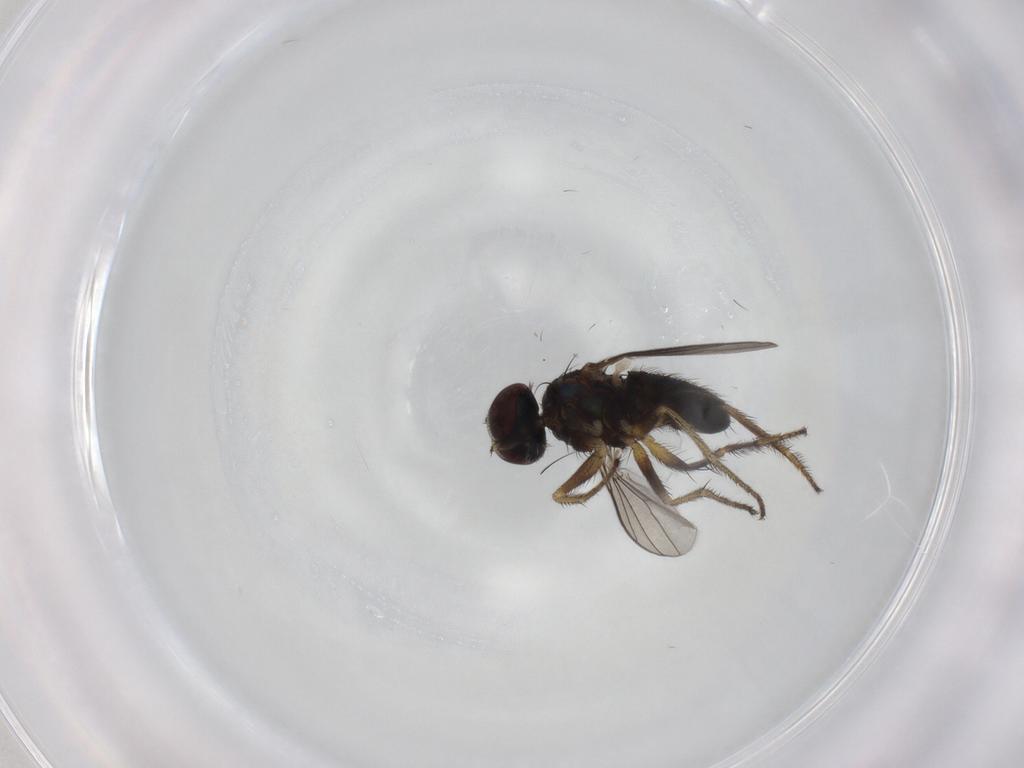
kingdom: Animalia
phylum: Arthropoda
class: Insecta
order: Diptera
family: Dolichopodidae
